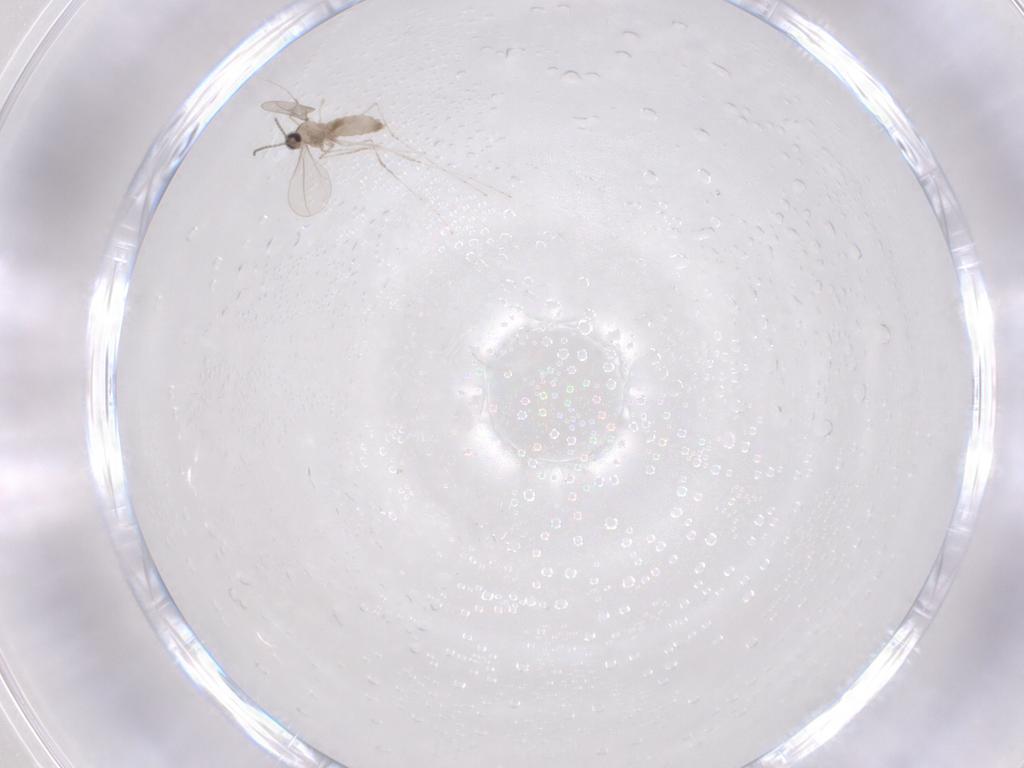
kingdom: Animalia
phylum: Arthropoda
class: Insecta
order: Diptera
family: Cecidomyiidae
